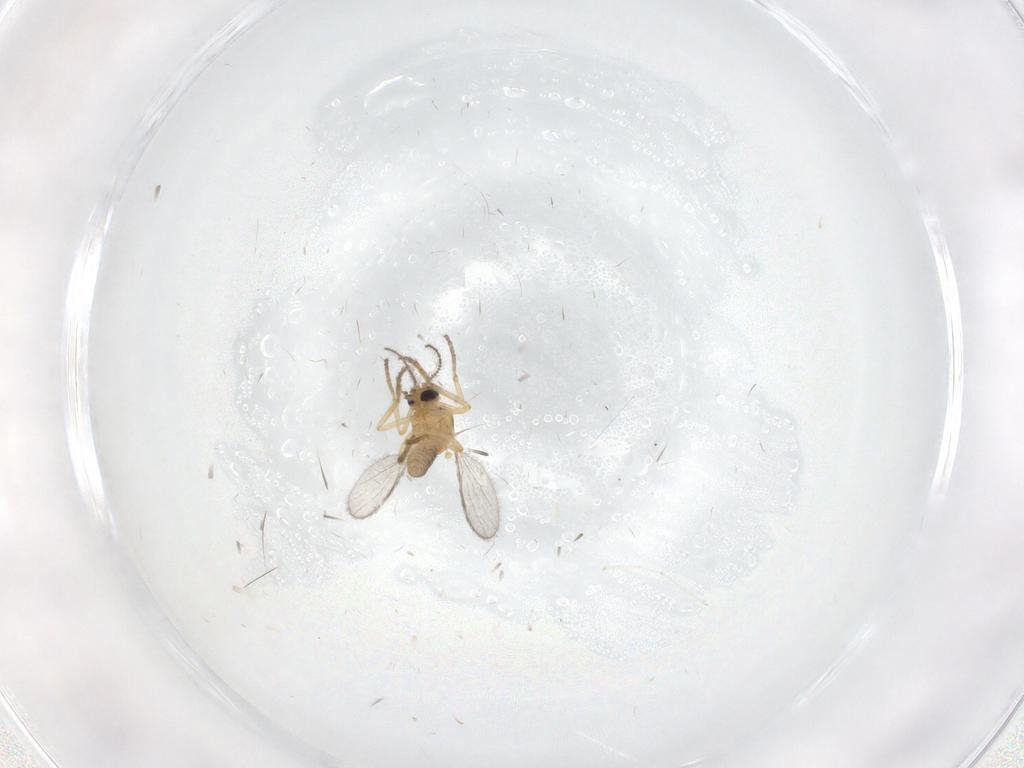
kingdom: Animalia
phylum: Arthropoda
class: Insecta
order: Diptera
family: Ceratopogonidae
